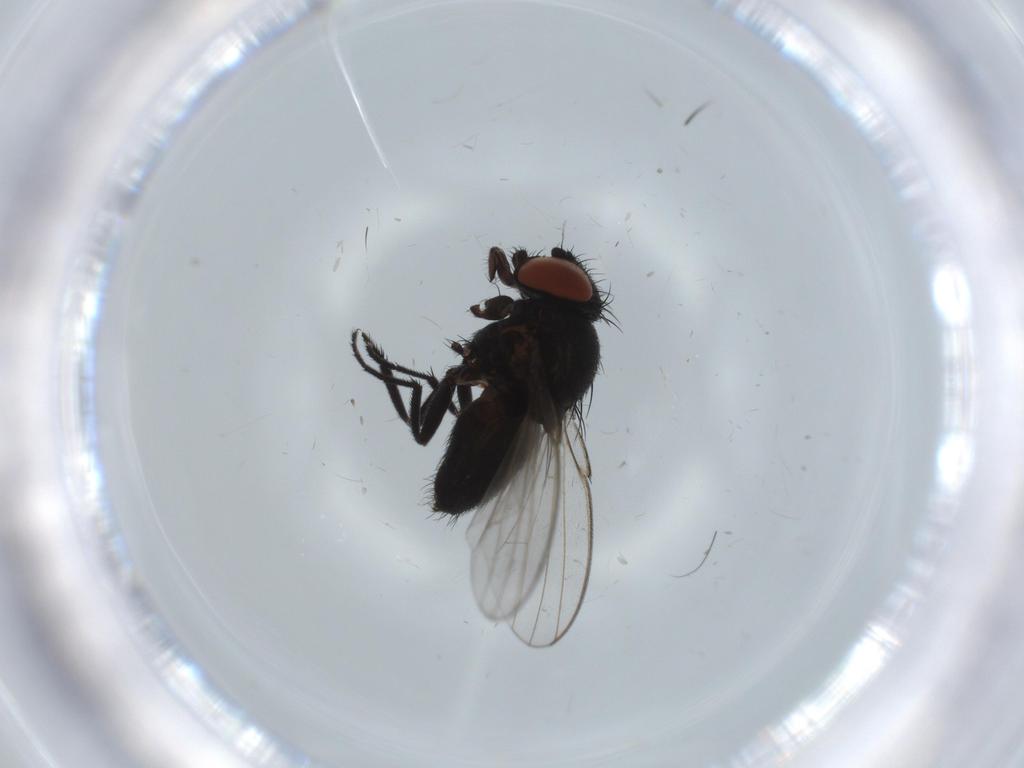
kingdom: Animalia
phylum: Arthropoda
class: Insecta
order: Diptera
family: Milichiidae
